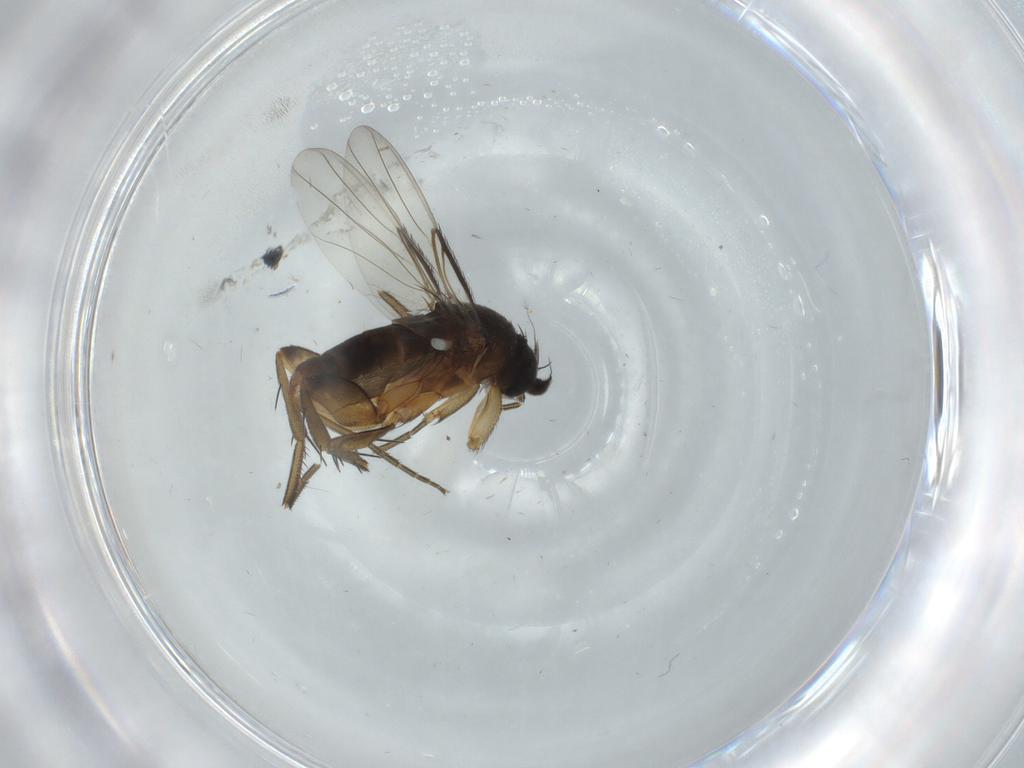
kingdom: Animalia
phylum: Arthropoda
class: Insecta
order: Diptera
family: Phoridae
